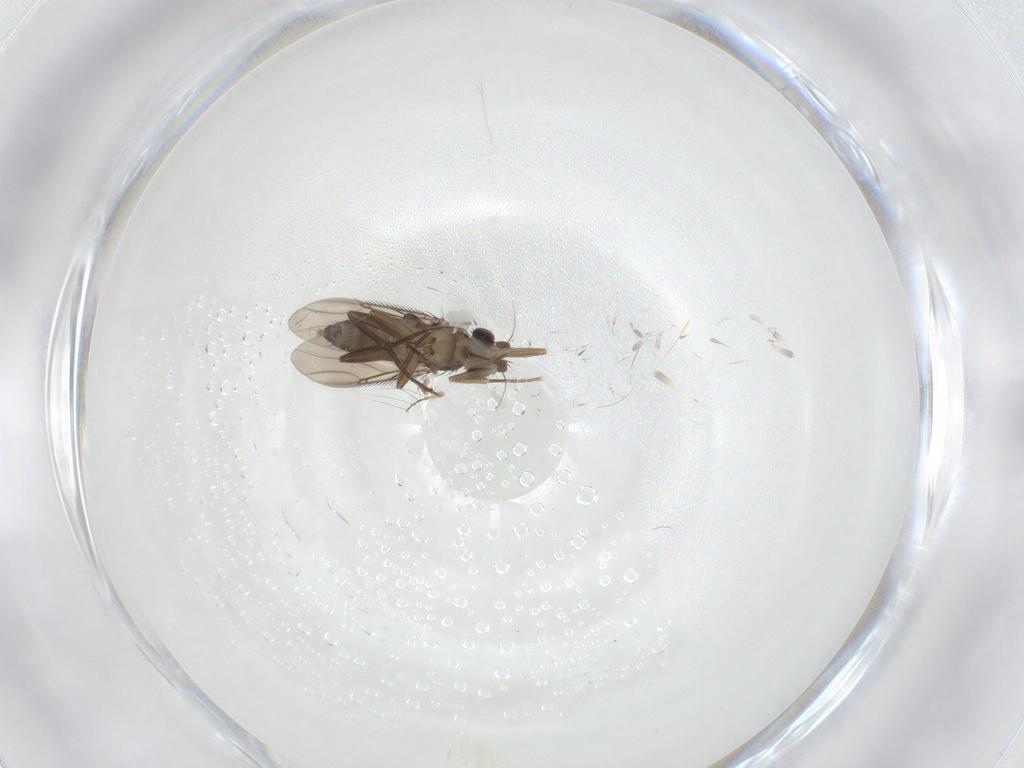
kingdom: Animalia
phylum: Arthropoda
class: Insecta
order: Diptera
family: Phoridae
